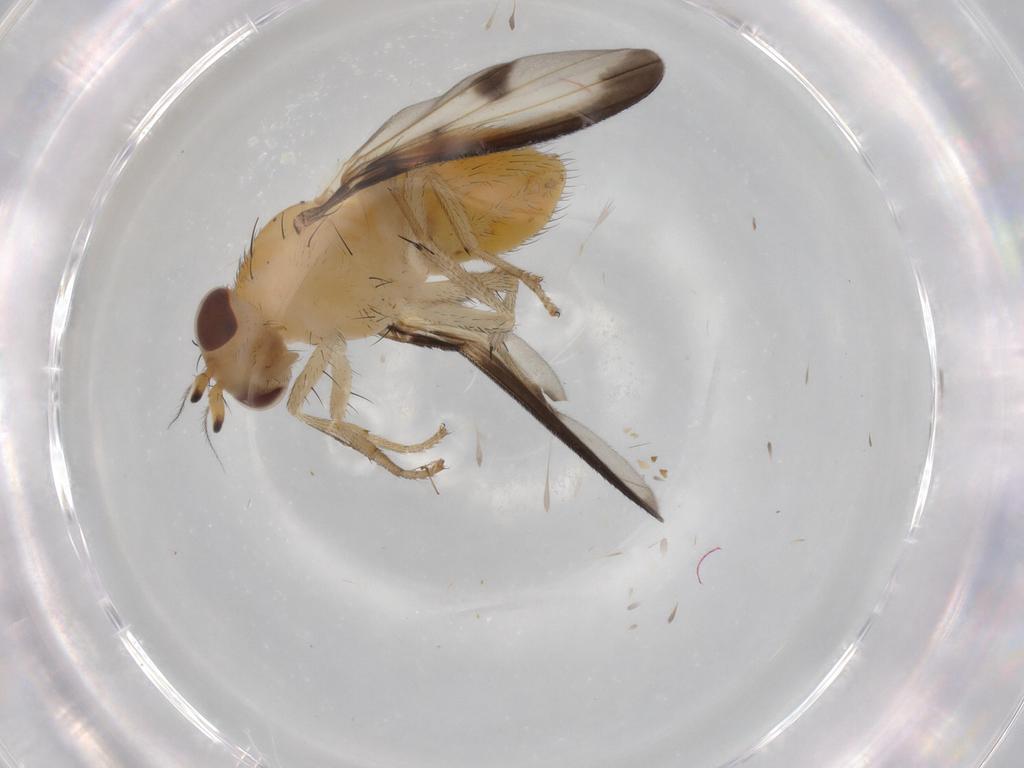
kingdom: Animalia
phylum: Arthropoda
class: Insecta
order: Diptera
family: Lauxaniidae
